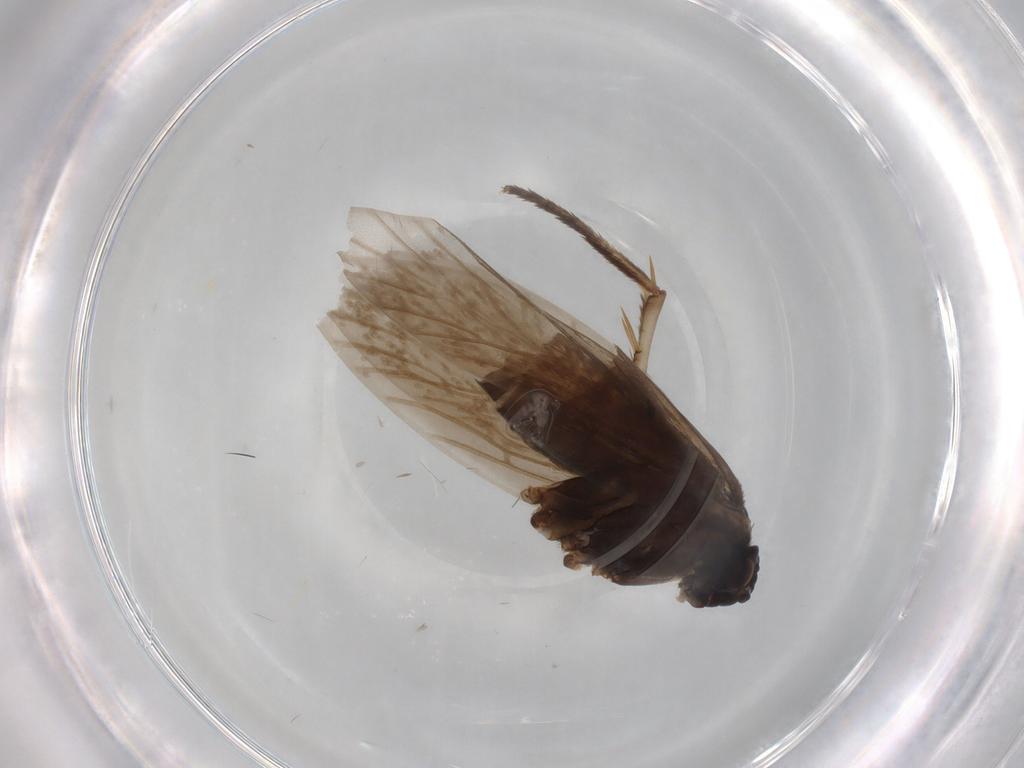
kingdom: Animalia
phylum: Arthropoda
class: Insecta
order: Lepidoptera
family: Micropterigidae
